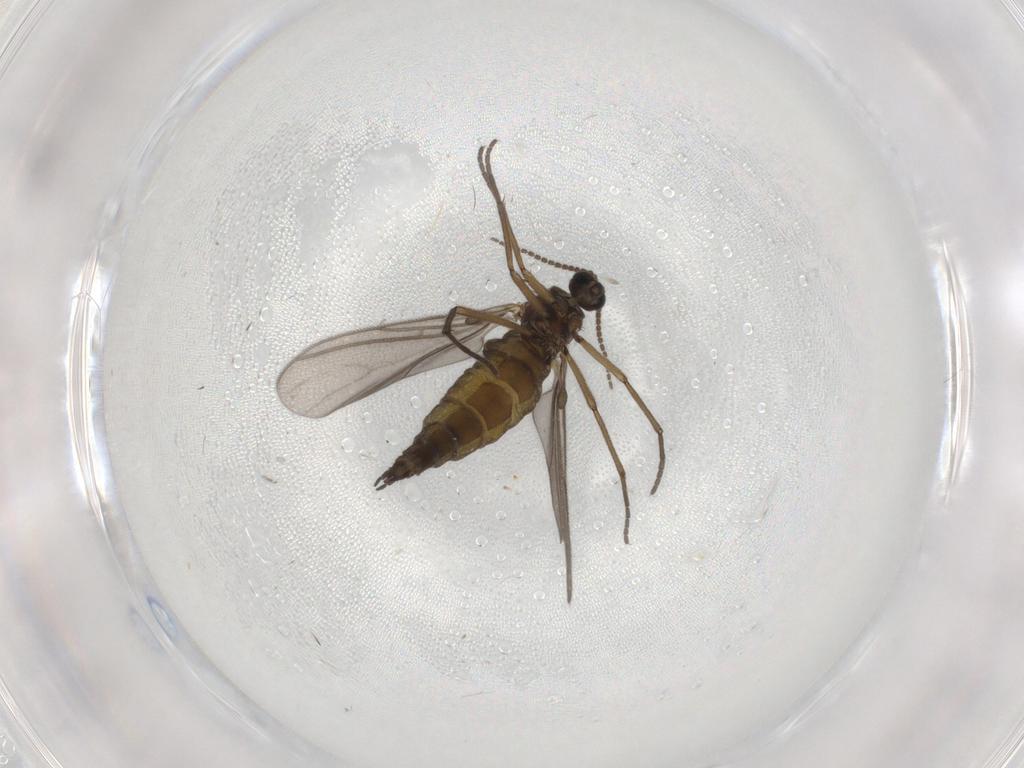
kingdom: Animalia
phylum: Arthropoda
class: Insecta
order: Diptera
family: Sciaridae
